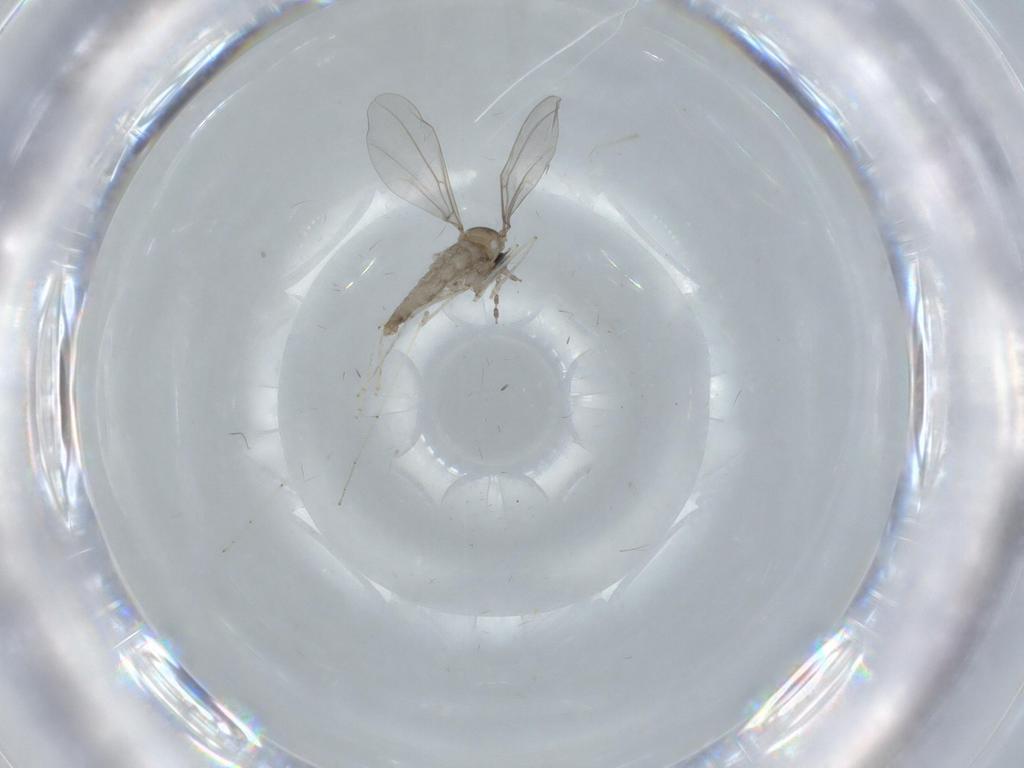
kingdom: Animalia
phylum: Arthropoda
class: Insecta
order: Diptera
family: Cecidomyiidae
